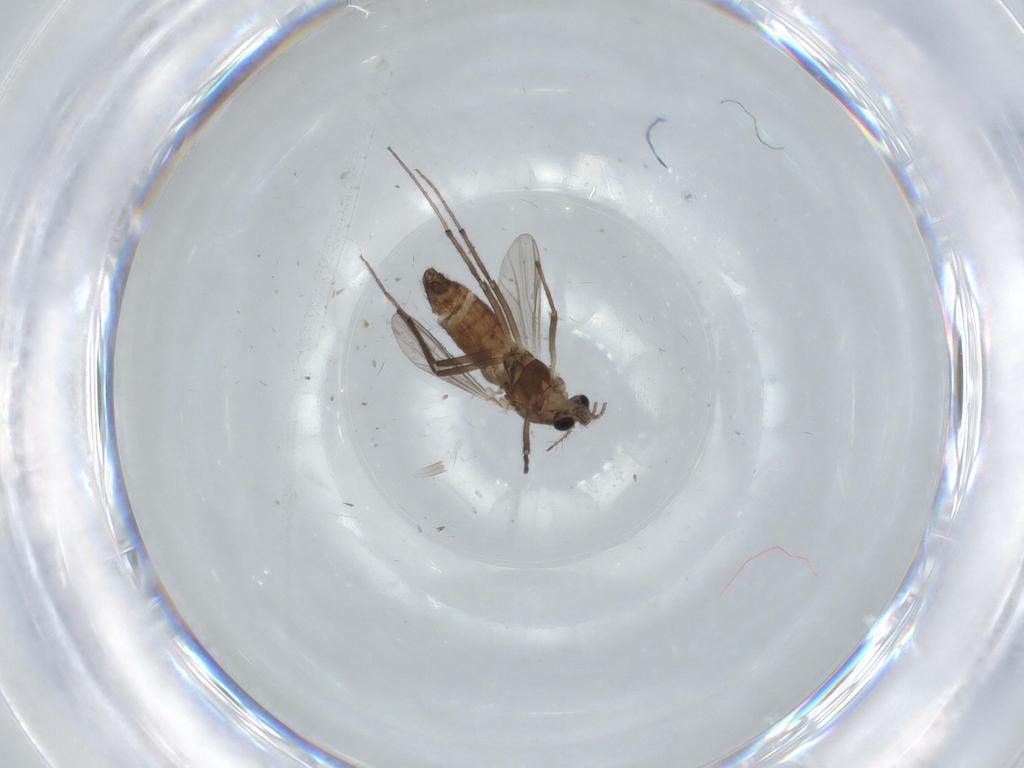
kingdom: Animalia
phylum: Arthropoda
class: Insecta
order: Diptera
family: Chironomidae
